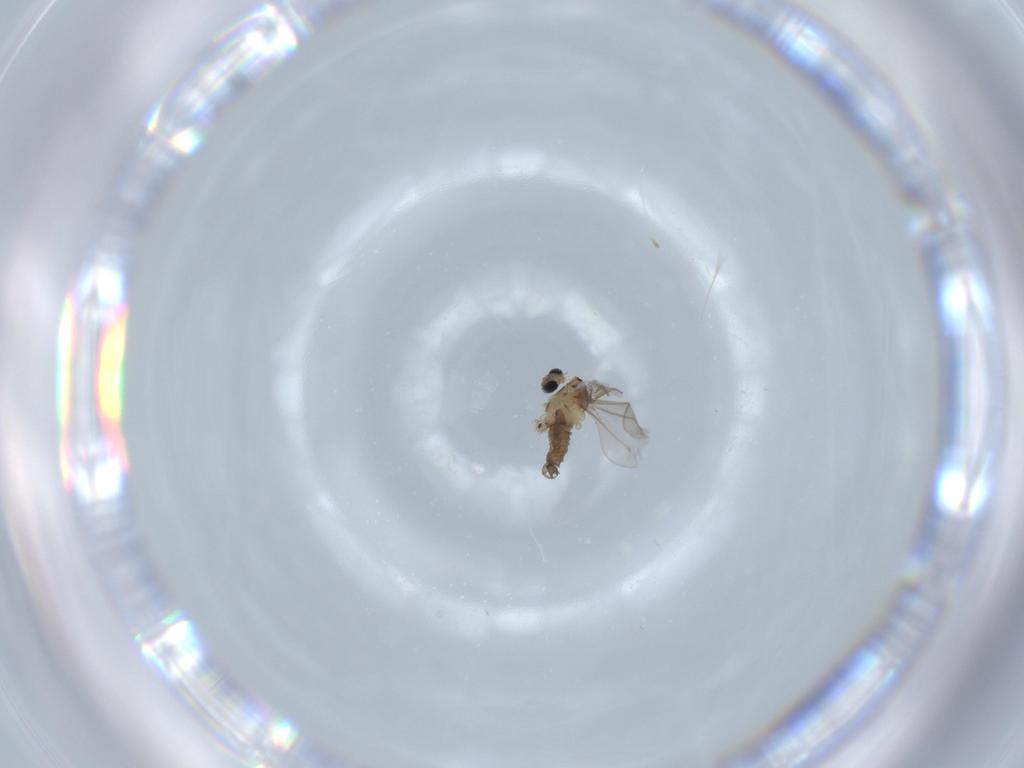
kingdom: Animalia
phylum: Arthropoda
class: Insecta
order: Diptera
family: Cecidomyiidae
